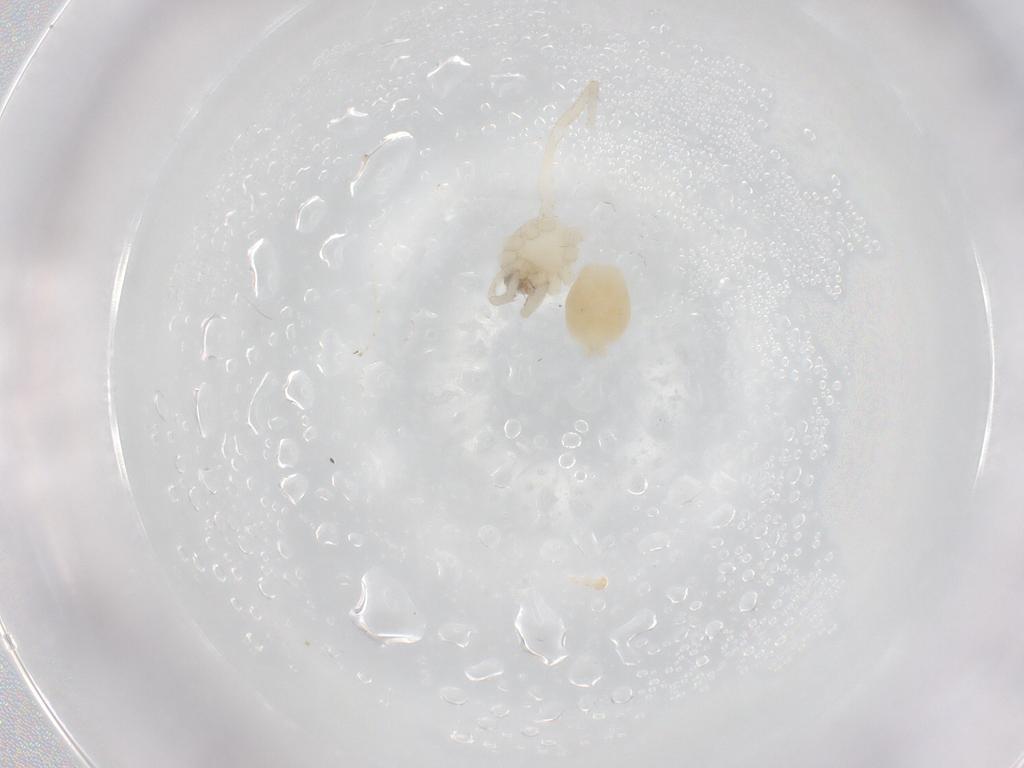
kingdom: Animalia
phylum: Arthropoda
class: Arachnida
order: Araneae
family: Gnaphosidae
